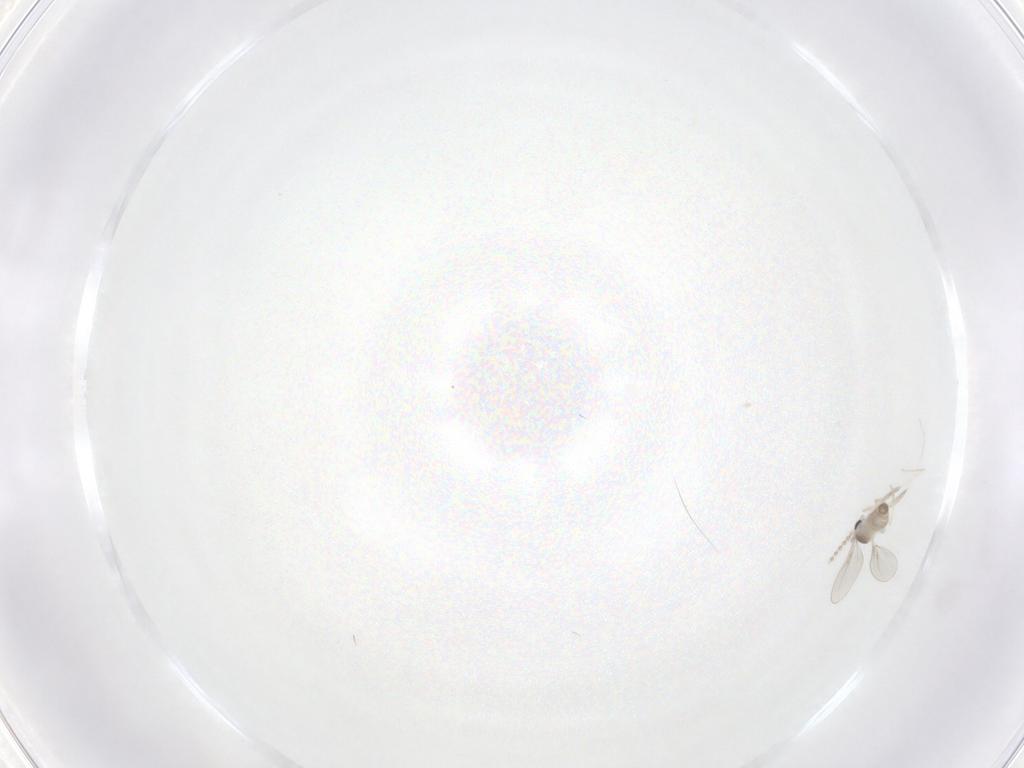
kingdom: Animalia
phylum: Arthropoda
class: Insecta
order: Diptera
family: Cecidomyiidae
